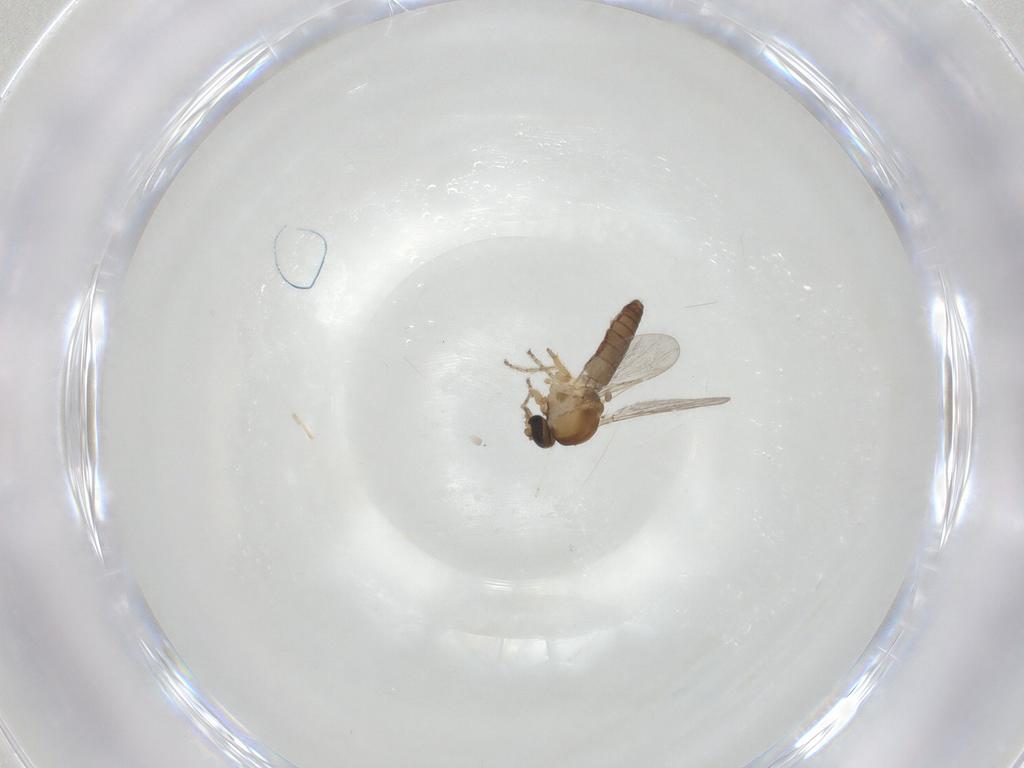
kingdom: Animalia
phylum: Arthropoda
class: Insecta
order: Diptera
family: Ceratopogonidae
